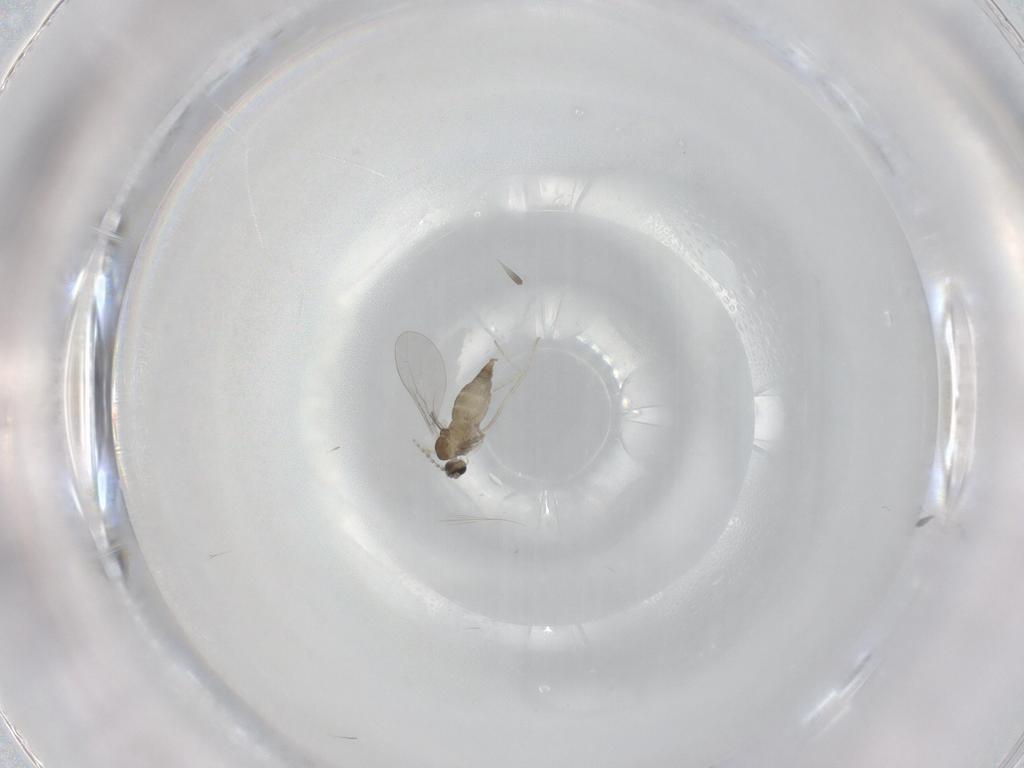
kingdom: Animalia
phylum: Arthropoda
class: Insecta
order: Diptera
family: Cecidomyiidae
